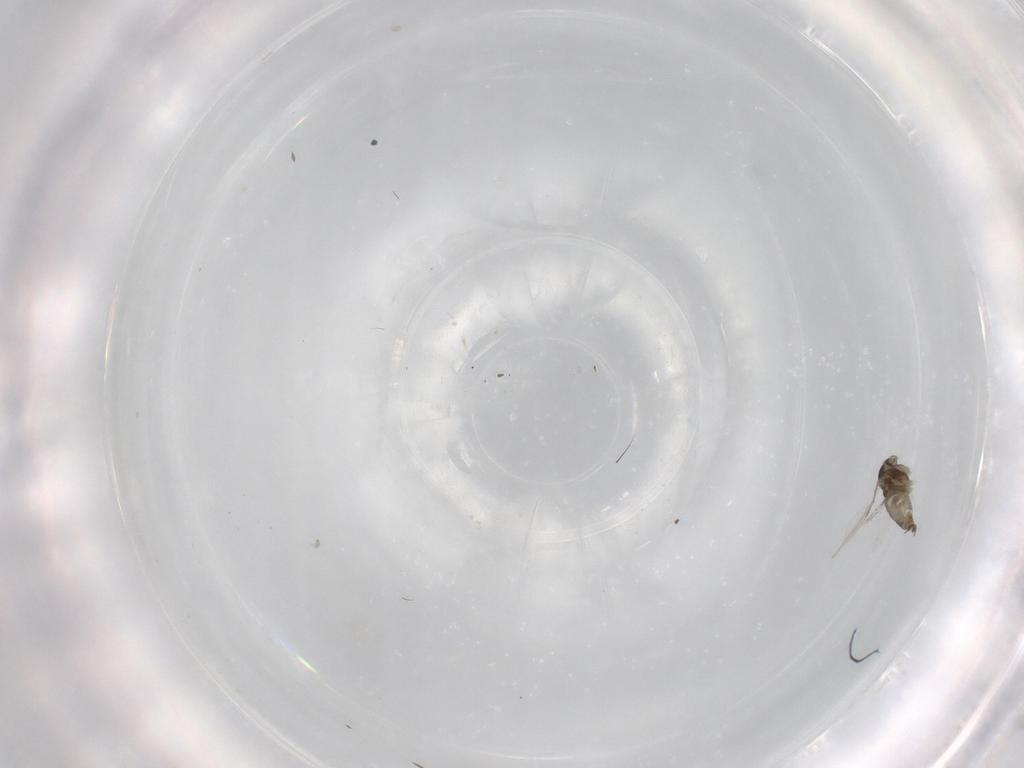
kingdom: Animalia
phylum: Arthropoda
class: Insecta
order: Diptera
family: Cecidomyiidae
